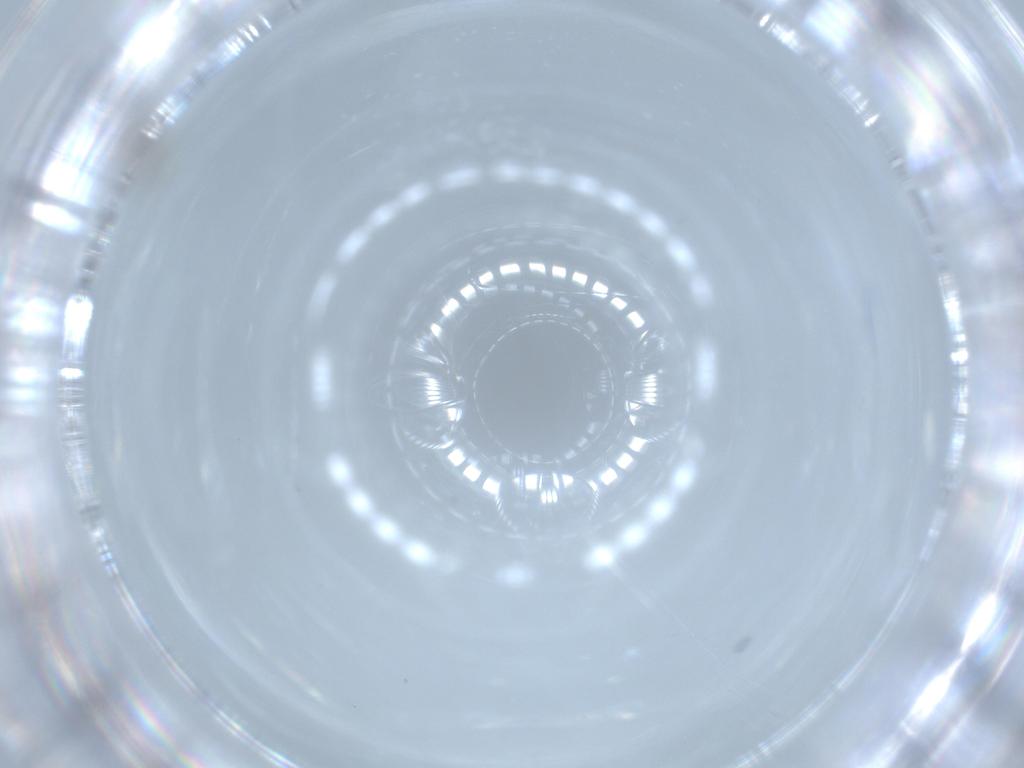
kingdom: Animalia
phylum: Arthropoda
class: Insecta
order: Diptera
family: Dolichopodidae
